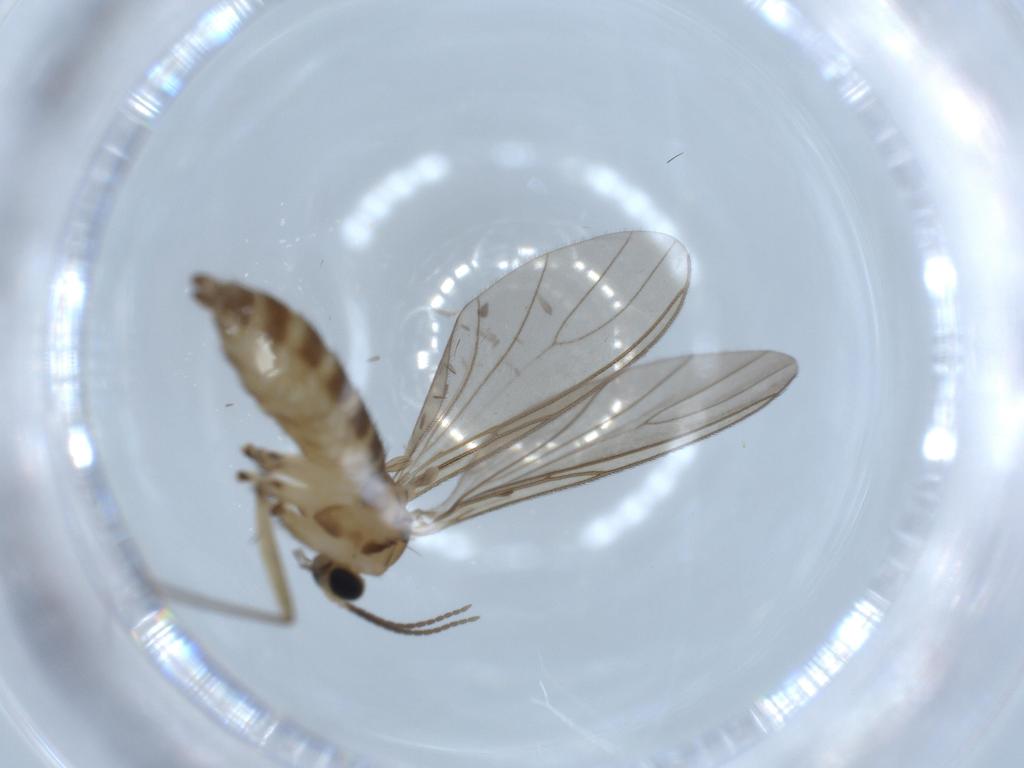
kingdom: Animalia
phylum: Arthropoda
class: Insecta
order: Diptera
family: Sciaridae
